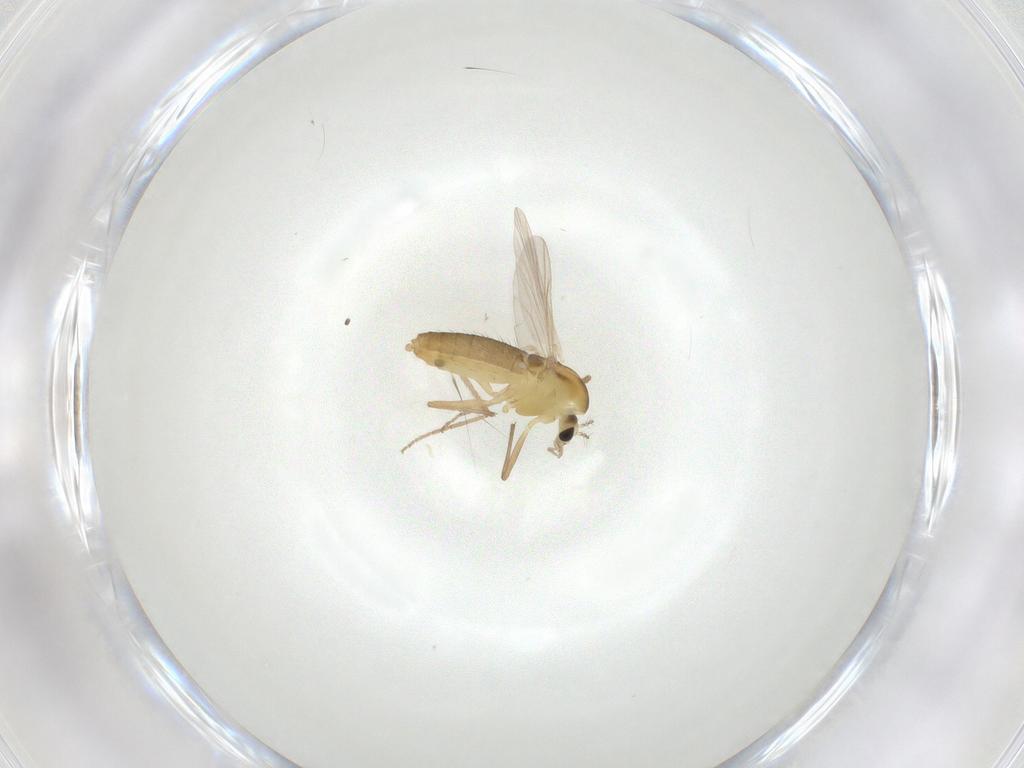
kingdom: Animalia
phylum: Arthropoda
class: Insecta
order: Diptera
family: Chironomidae
